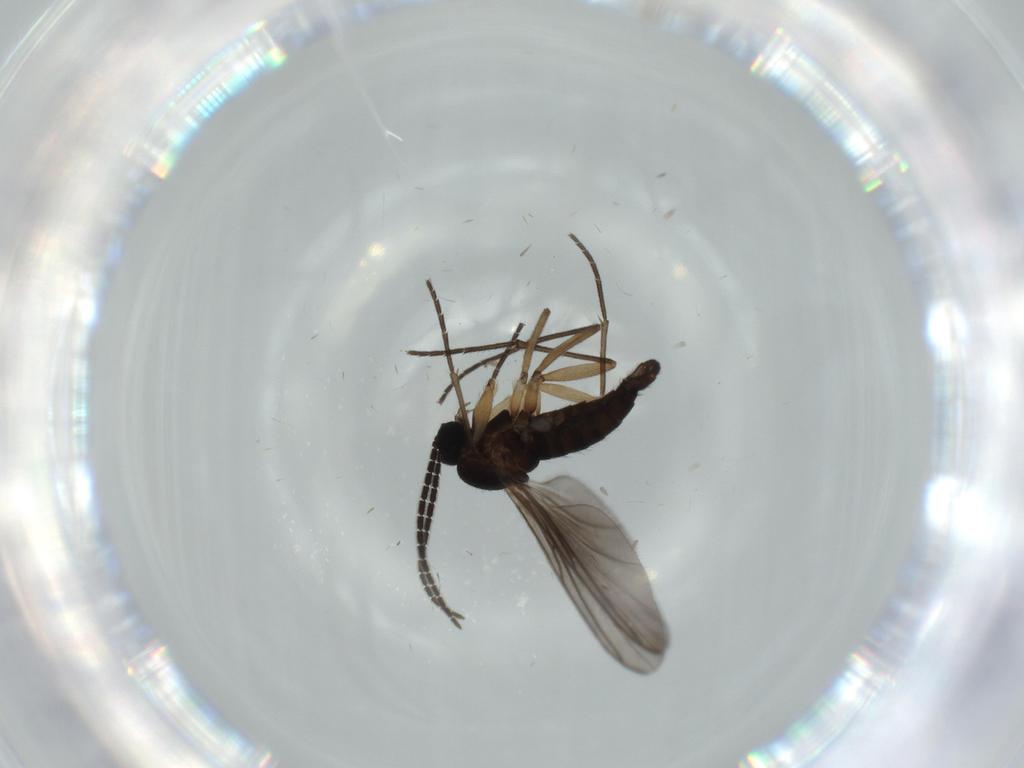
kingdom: Animalia
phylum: Arthropoda
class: Insecta
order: Diptera
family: Sciaridae
